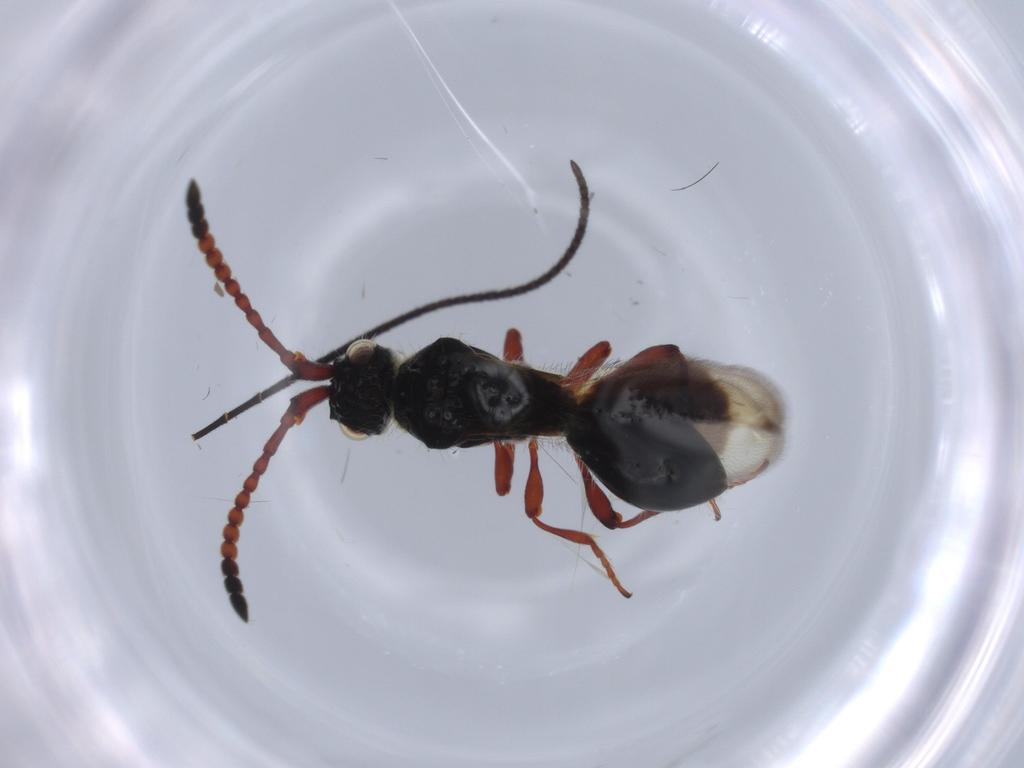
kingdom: Animalia
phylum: Arthropoda
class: Insecta
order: Hymenoptera
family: Diapriidae
